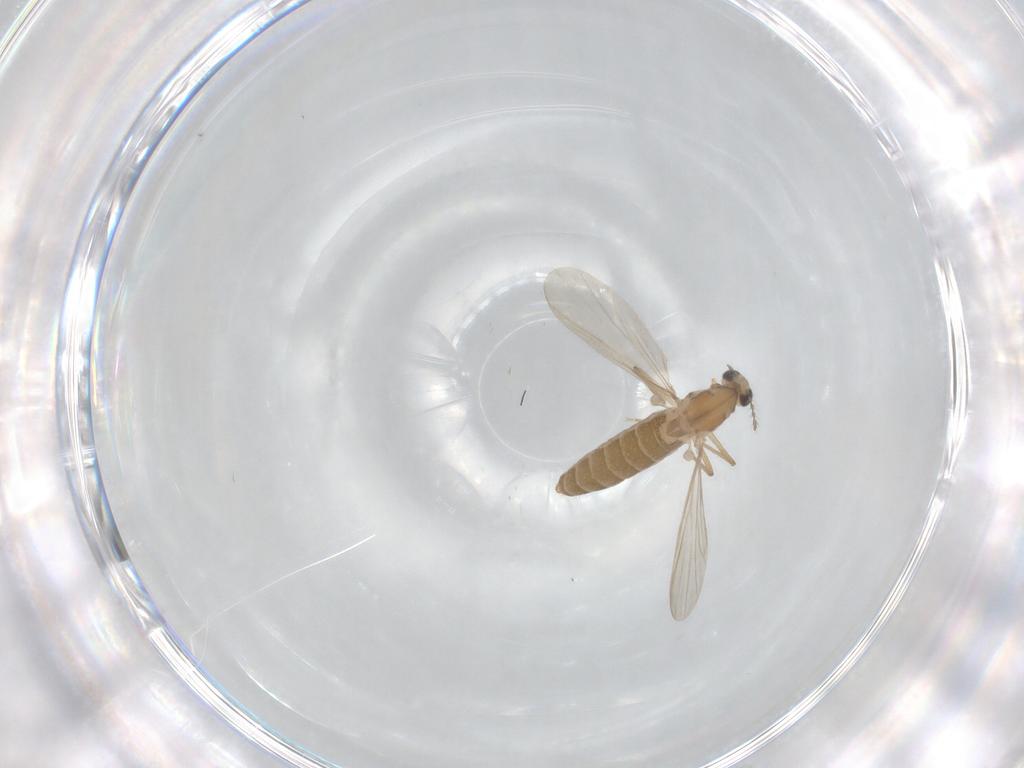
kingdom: Animalia
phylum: Arthropoda
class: Insecta
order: Diptera
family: Chironomidae
